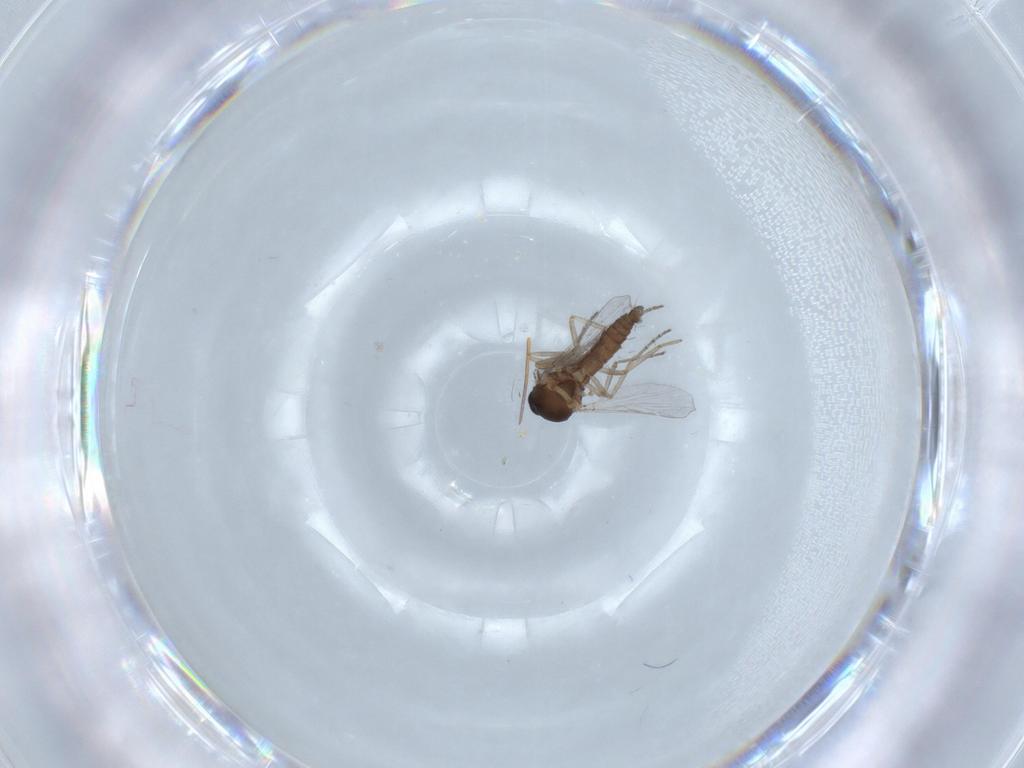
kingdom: Animalia
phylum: Arthropoda
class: Insecta
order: Diptera
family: Chironomidae
